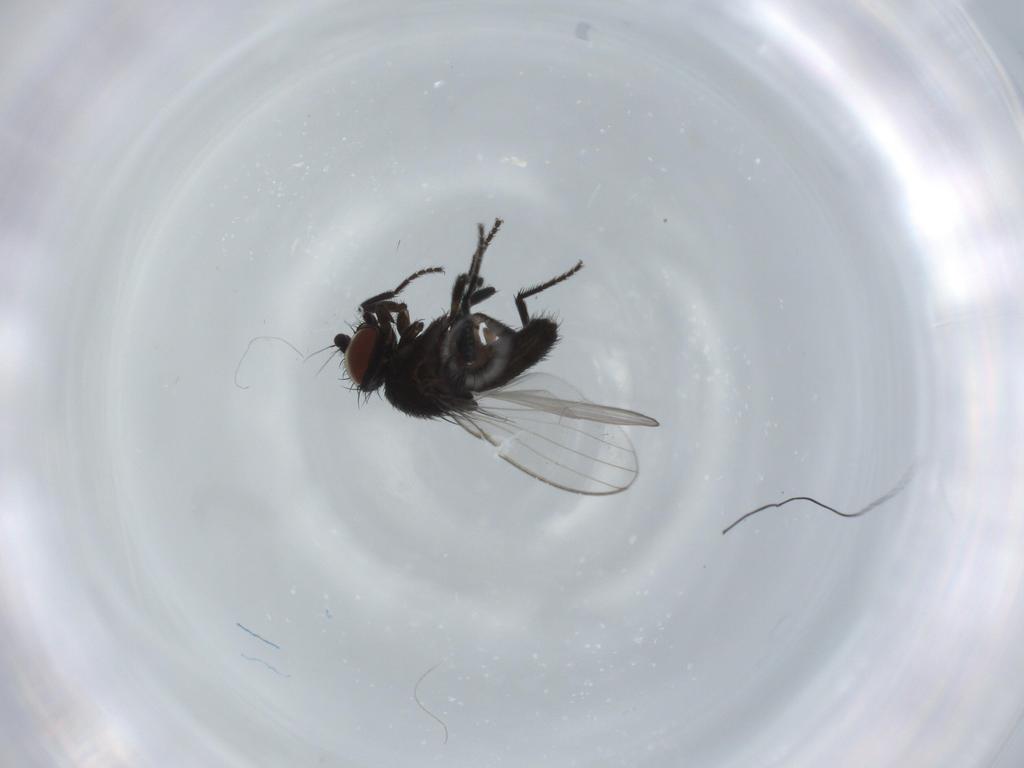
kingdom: Animalia
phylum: Arthropoda
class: Insecta
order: Diptera
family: Milichiidae
